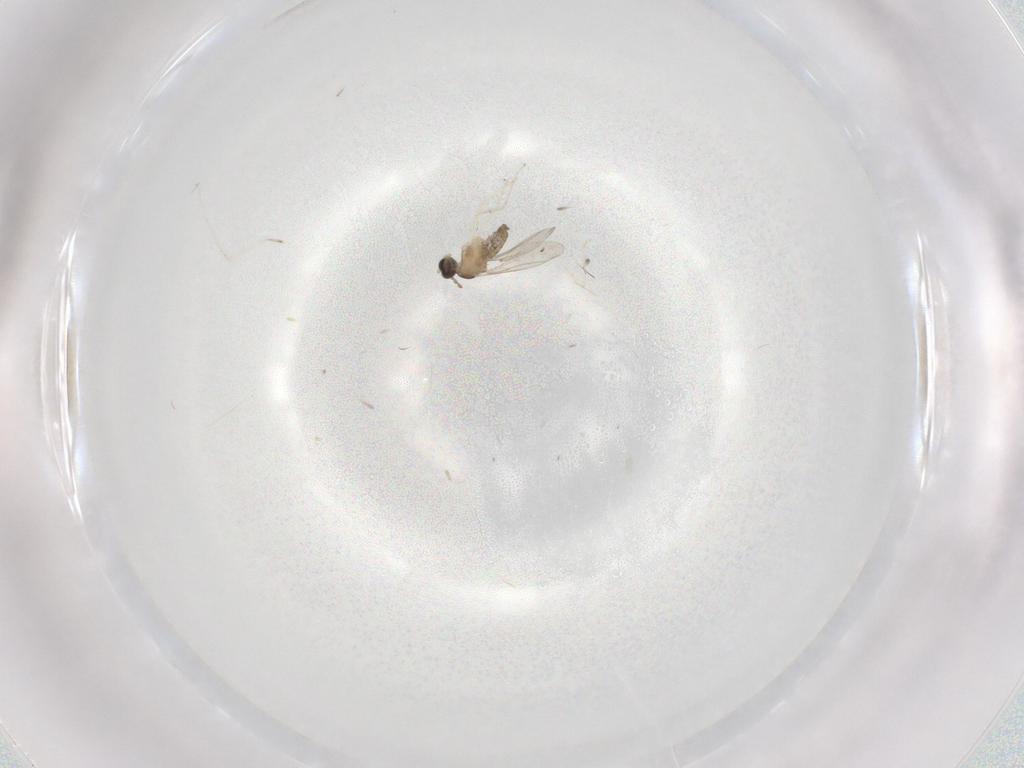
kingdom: Animalia
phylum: Arthropoda
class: Insecta
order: Diptera
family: Cecidomyiidae
